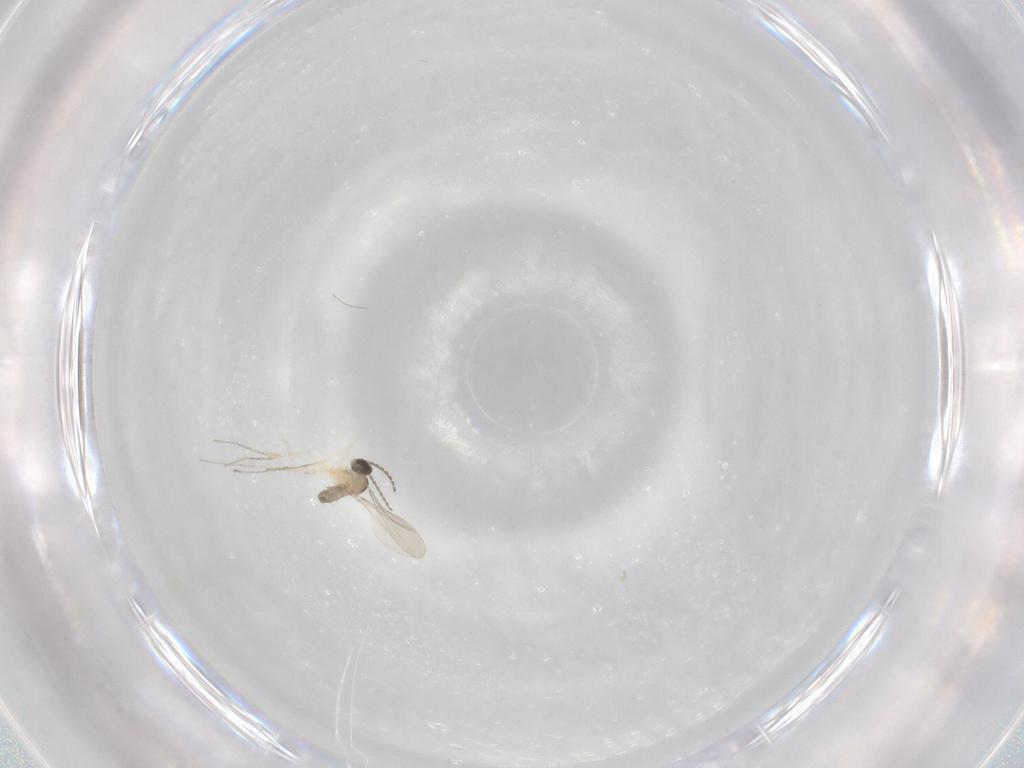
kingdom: Animalia
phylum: Arthropoda
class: Insecta
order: Diptera
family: Cecidomyiidae
